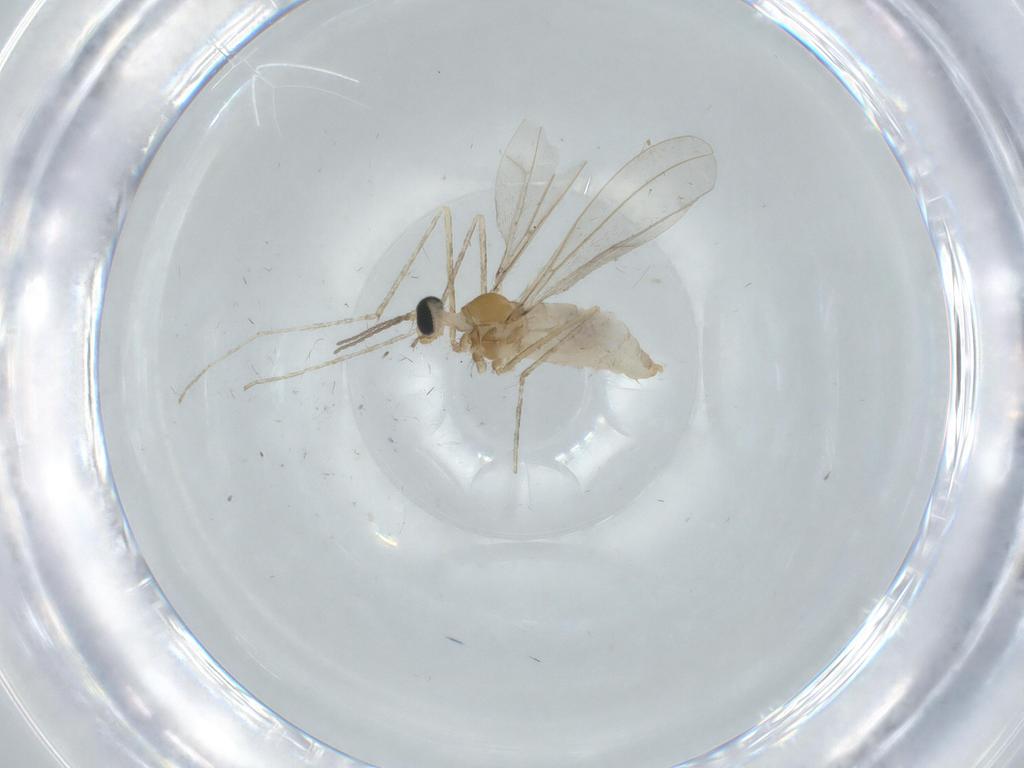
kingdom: Animalia
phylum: Arthropoda
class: Insecta
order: Diptera
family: Cecidomyiidae
